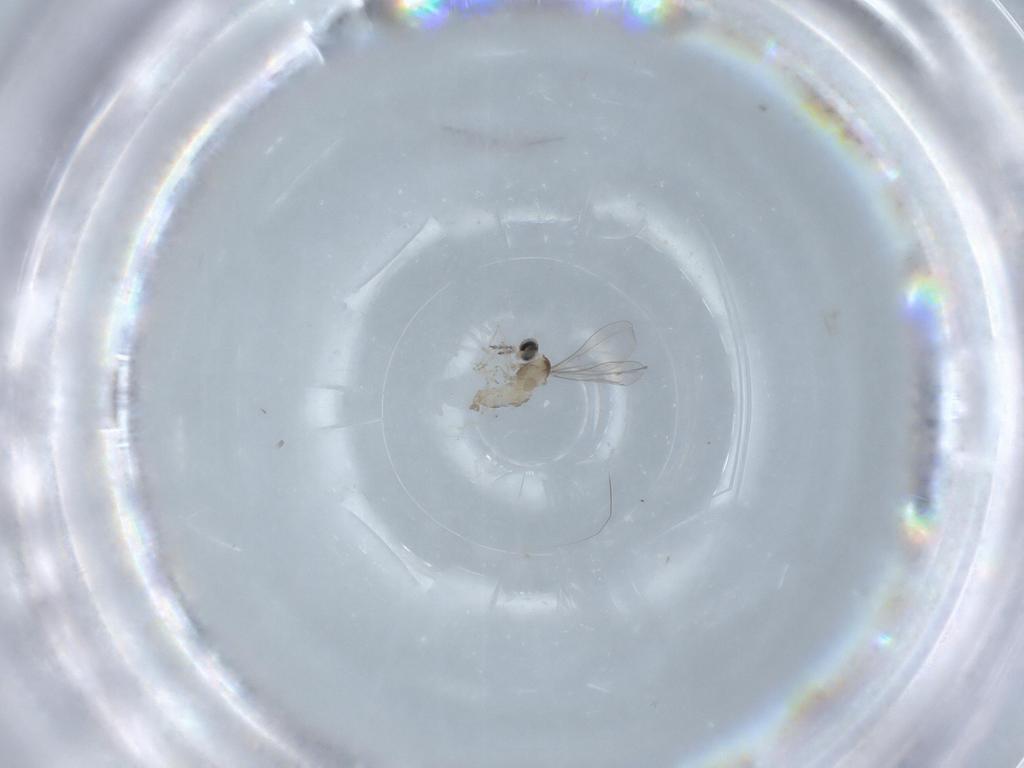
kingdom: Animalia
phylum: Arthropoda
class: Insecta
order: Diptera
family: Cecidomyiidae
